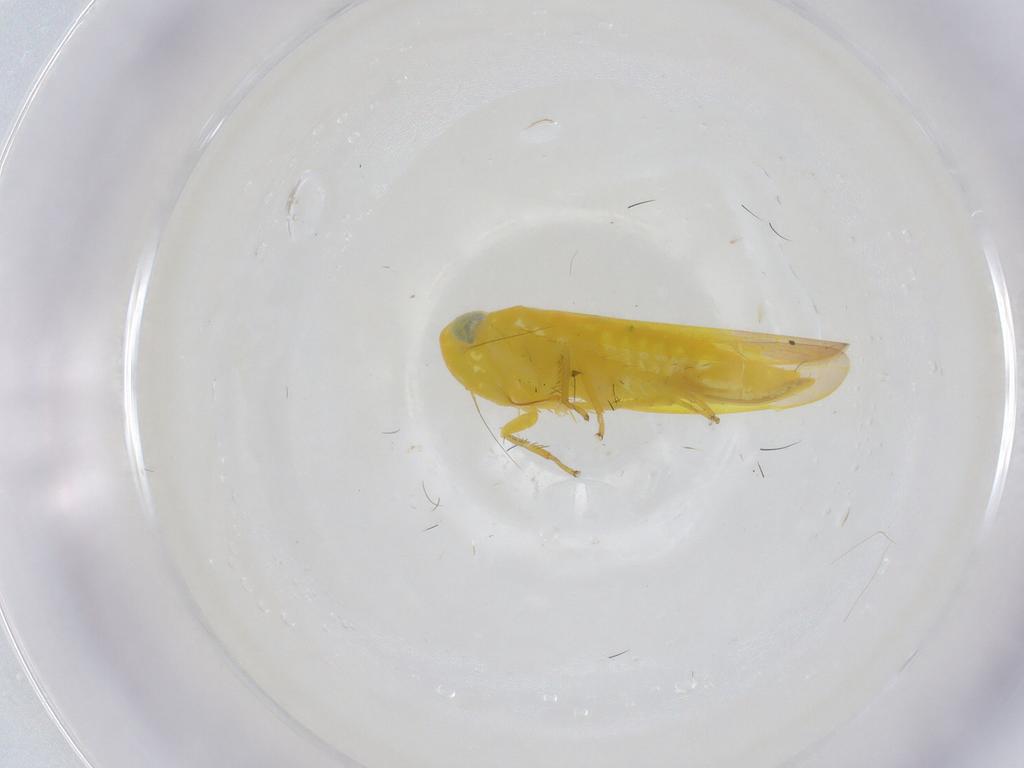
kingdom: Animalia
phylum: Arthropoda
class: Insecta
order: Hemiptera
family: Cicadellidae
